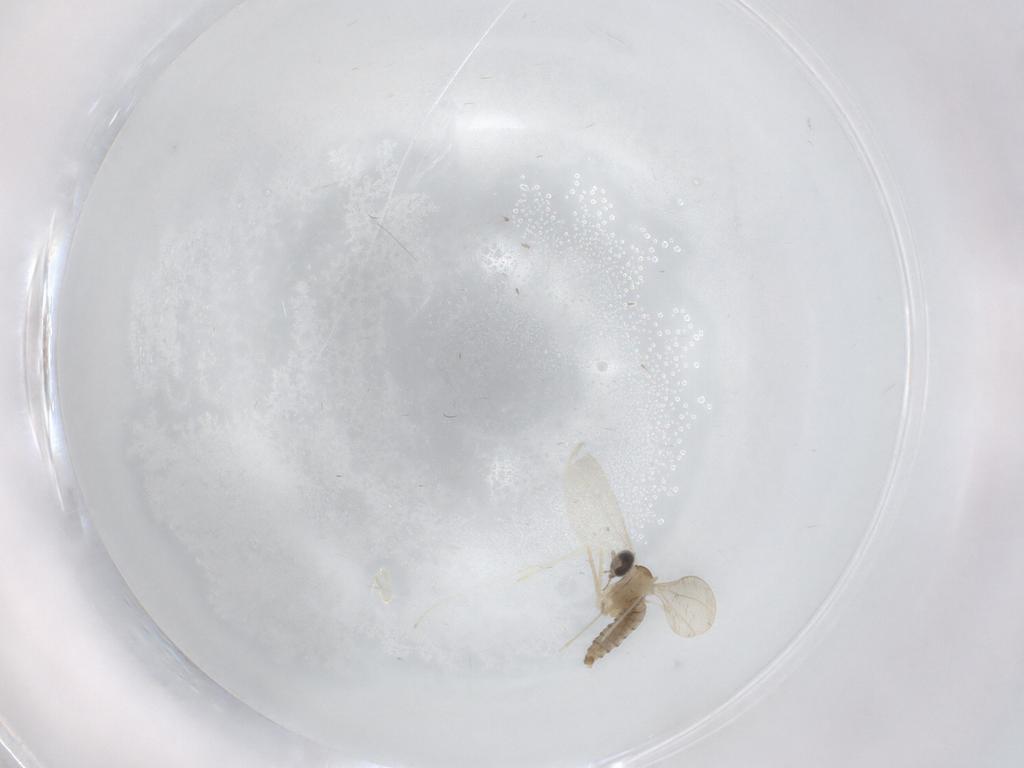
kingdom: Animalia
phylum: Arthropoda
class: Insecta
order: Diptera
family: Cecidomyiidae
